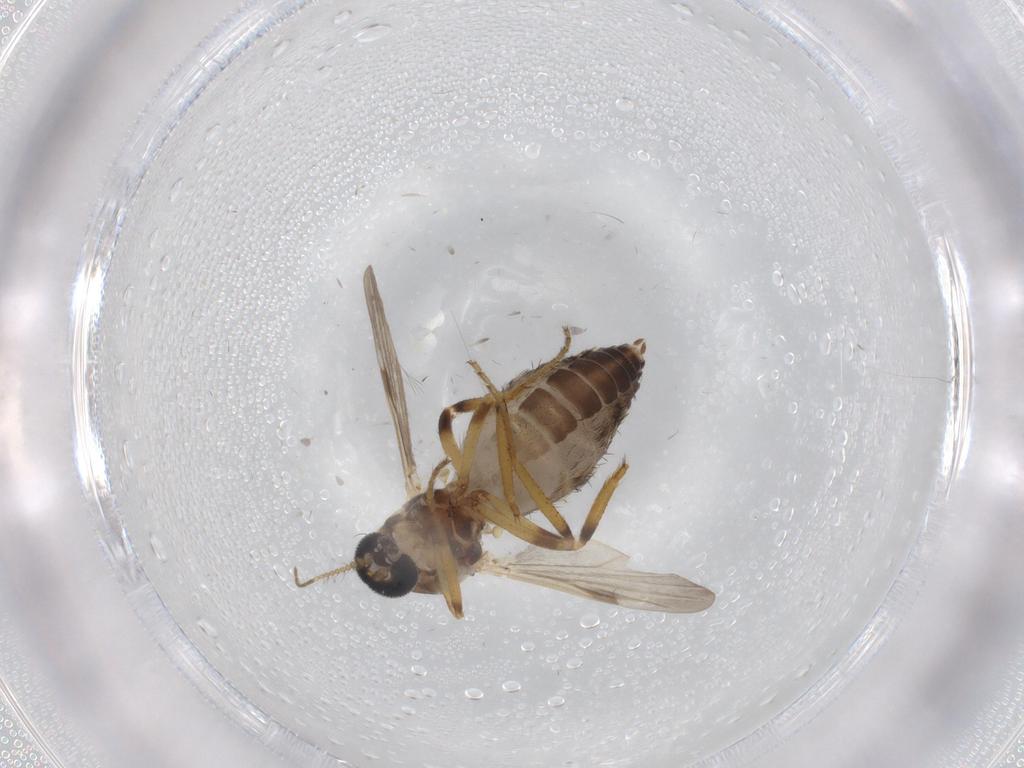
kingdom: Animalia
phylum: Arthropoda
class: Insecta
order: Diptera
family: Ceratopogonidae
